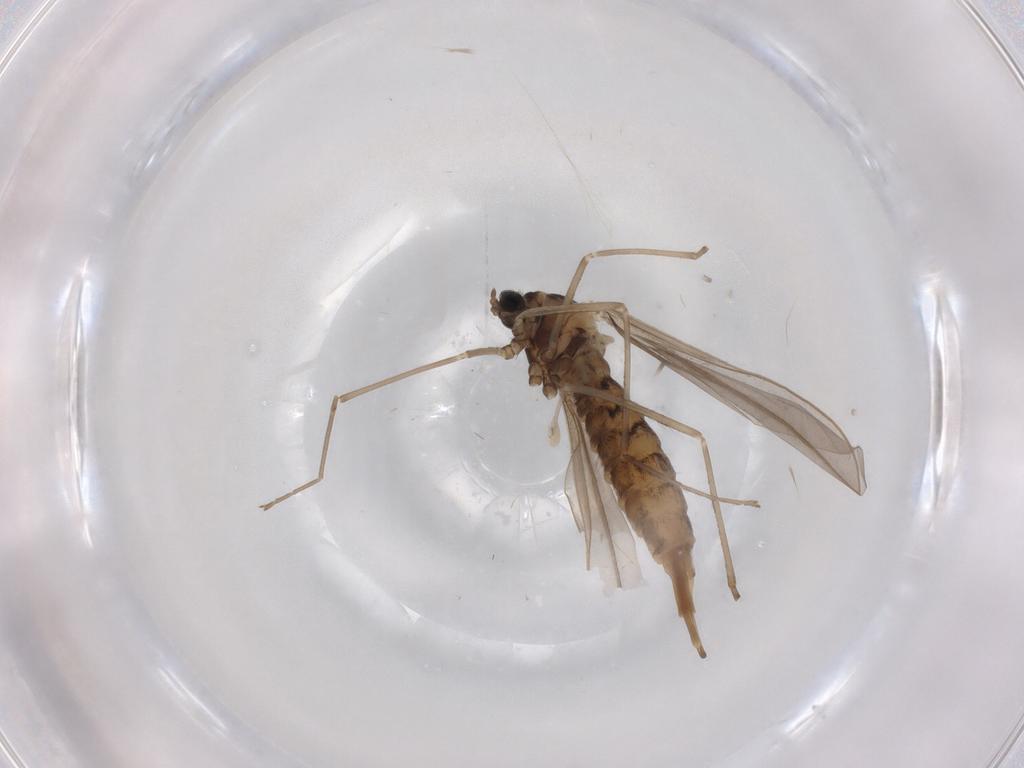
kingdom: Animalia
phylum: Arthropoda
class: Insecta
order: Diptera
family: Cecidomyiidae
